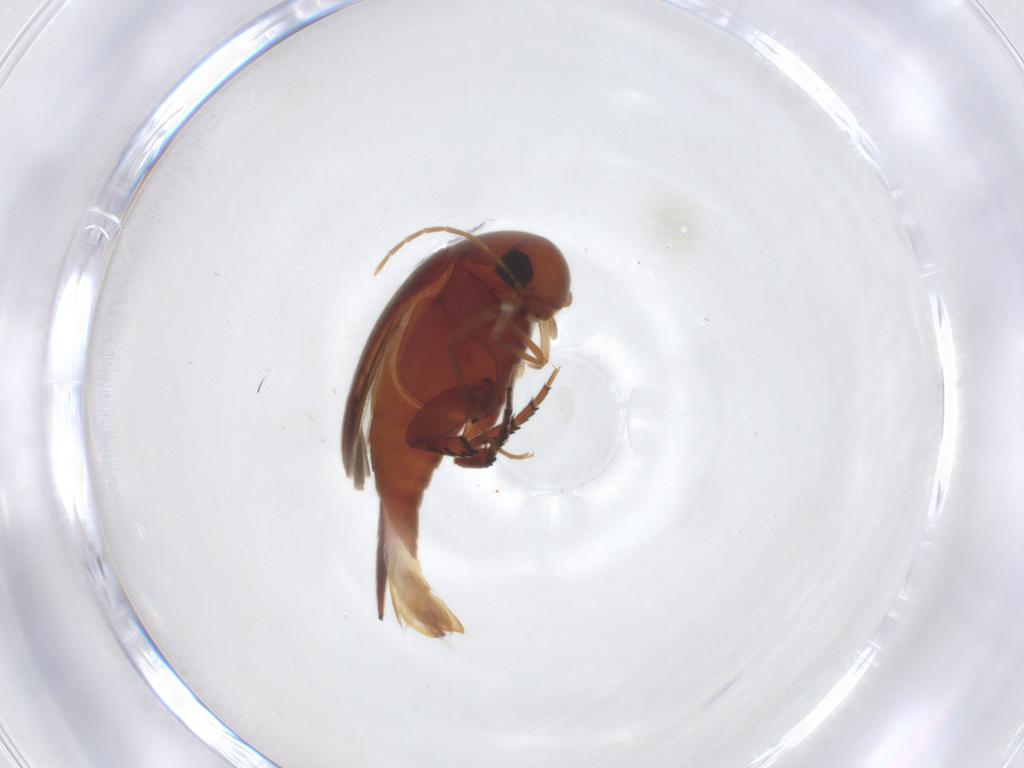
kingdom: Animalia
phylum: Arthropoda
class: Insecta
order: Coleoptera
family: Mordellidae
